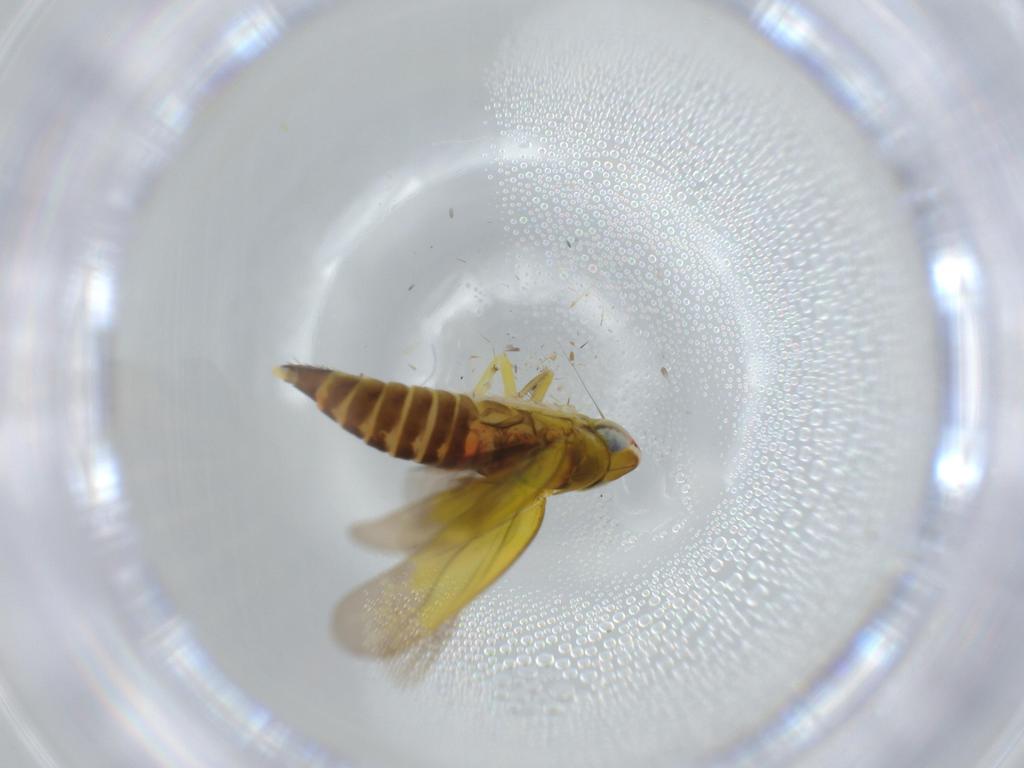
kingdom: Animalia
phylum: Arthropoda
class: Insecta
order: Hemiptera
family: Cicadellidae
